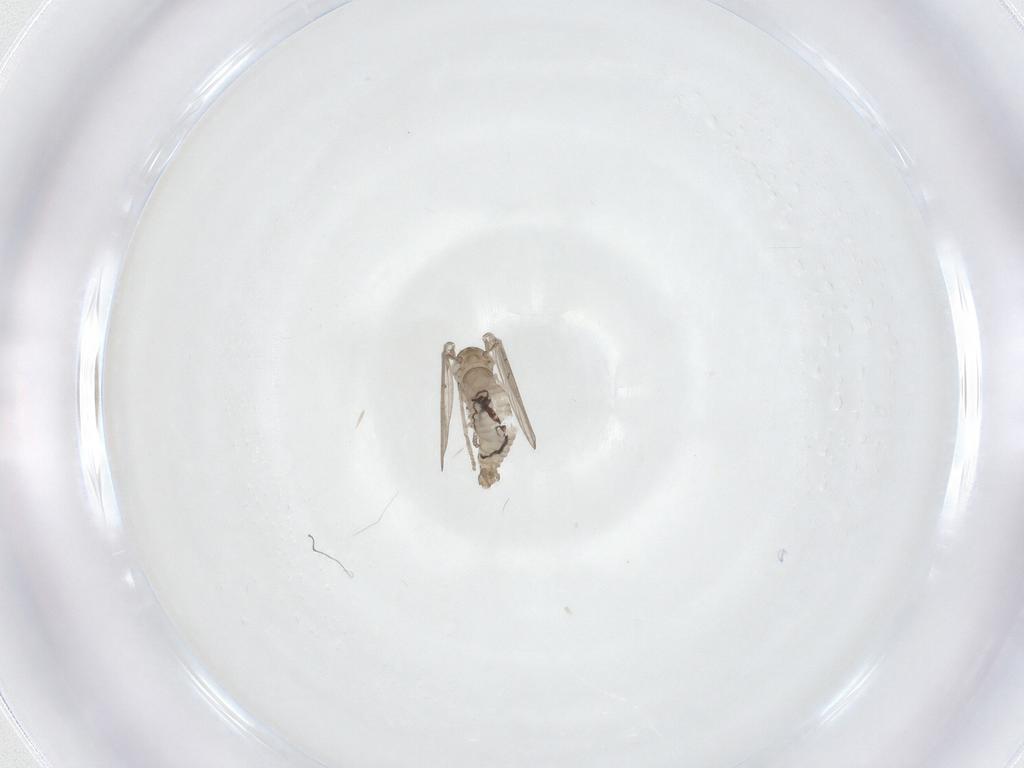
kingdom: Animalia
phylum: Arthropoda
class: Insecta
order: Diptera
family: Psychodidae
